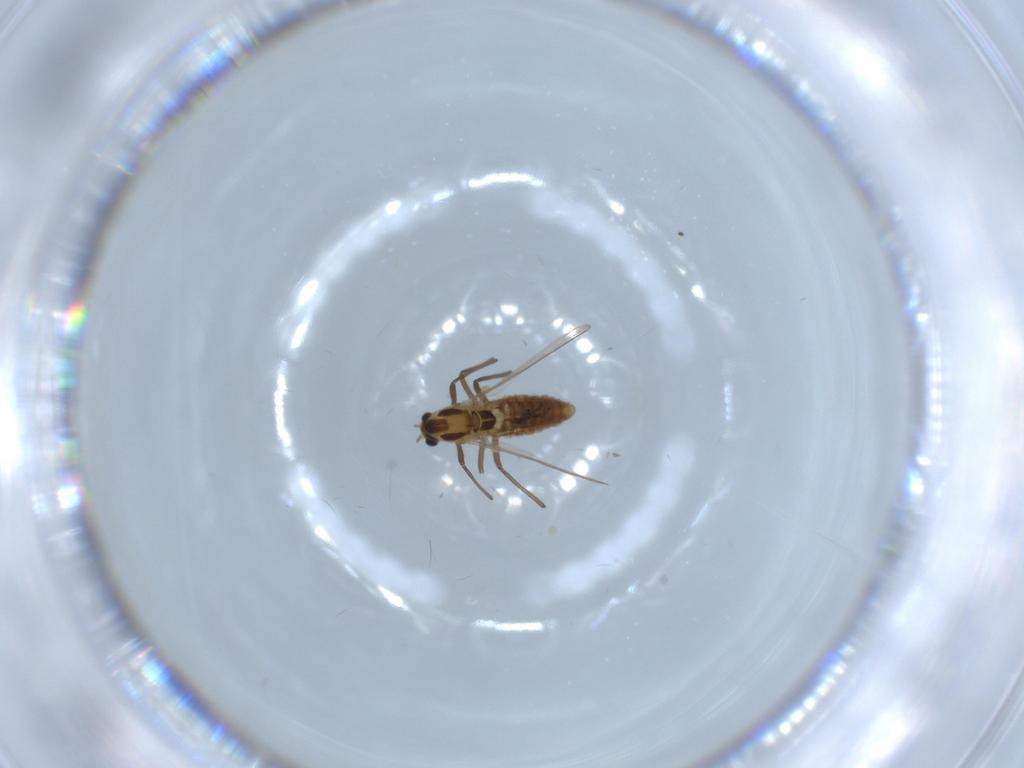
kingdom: Animalia
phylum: Arthropoda
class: Insecta
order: Diptera
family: Chironomidae
